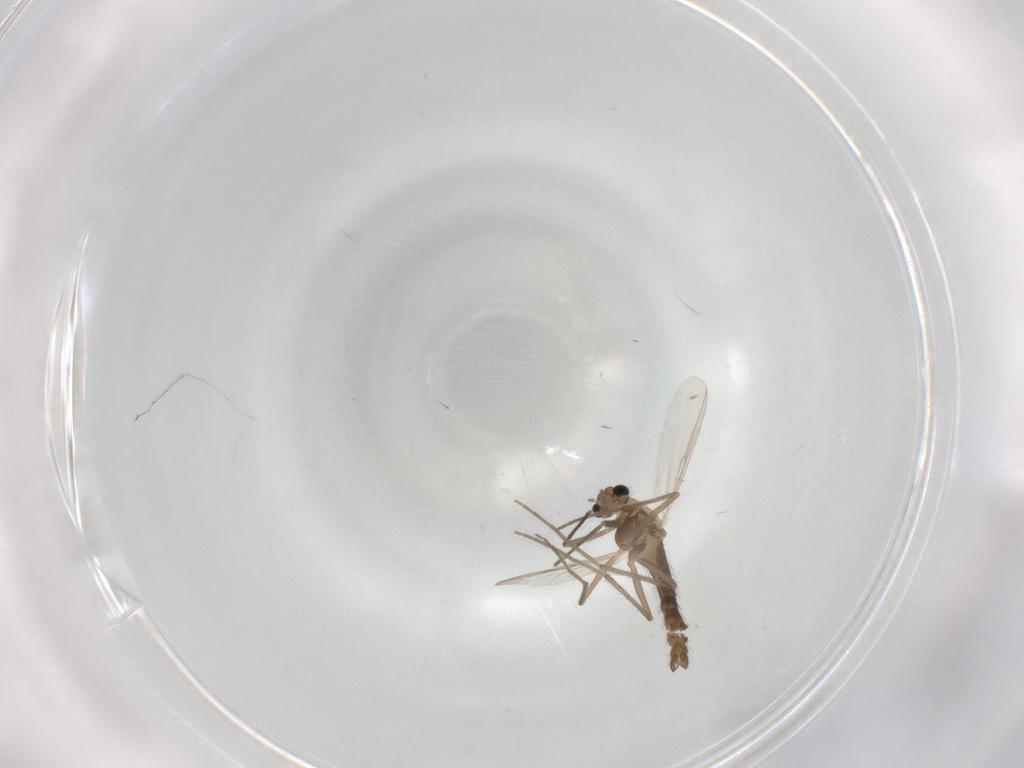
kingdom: Animalia
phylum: Arthropoda
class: Insecta
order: Diptera
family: Chironomidae
